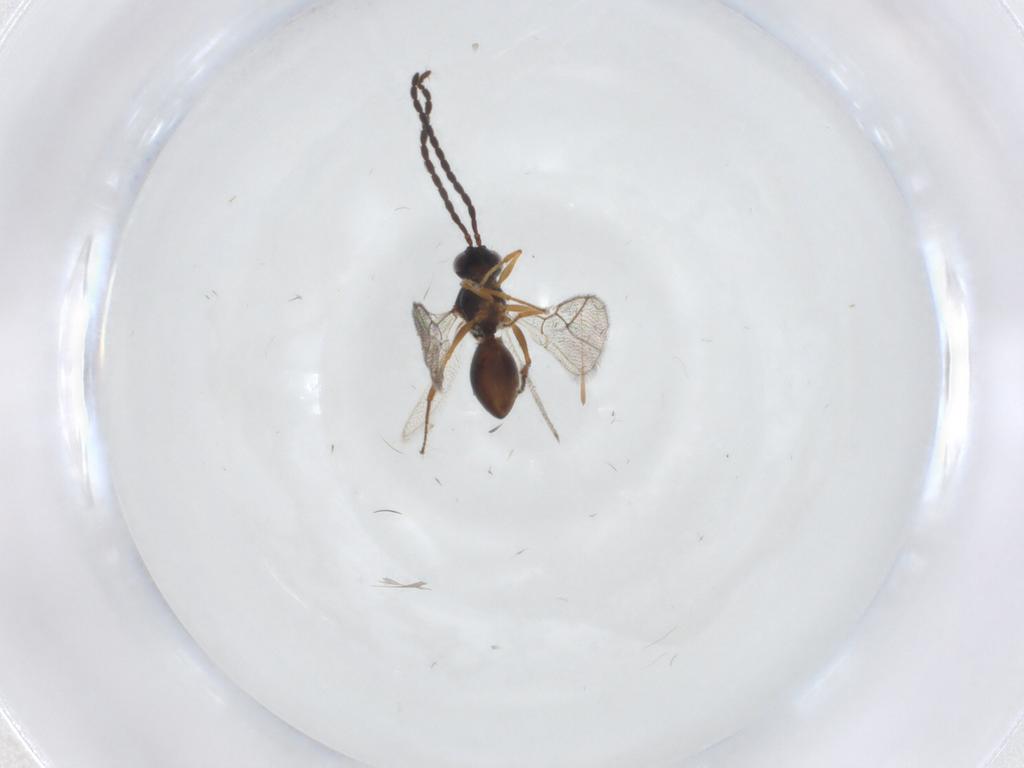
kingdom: Animalia
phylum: Arthropoda
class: Insecta
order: Hymenoptera
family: Figitidae
